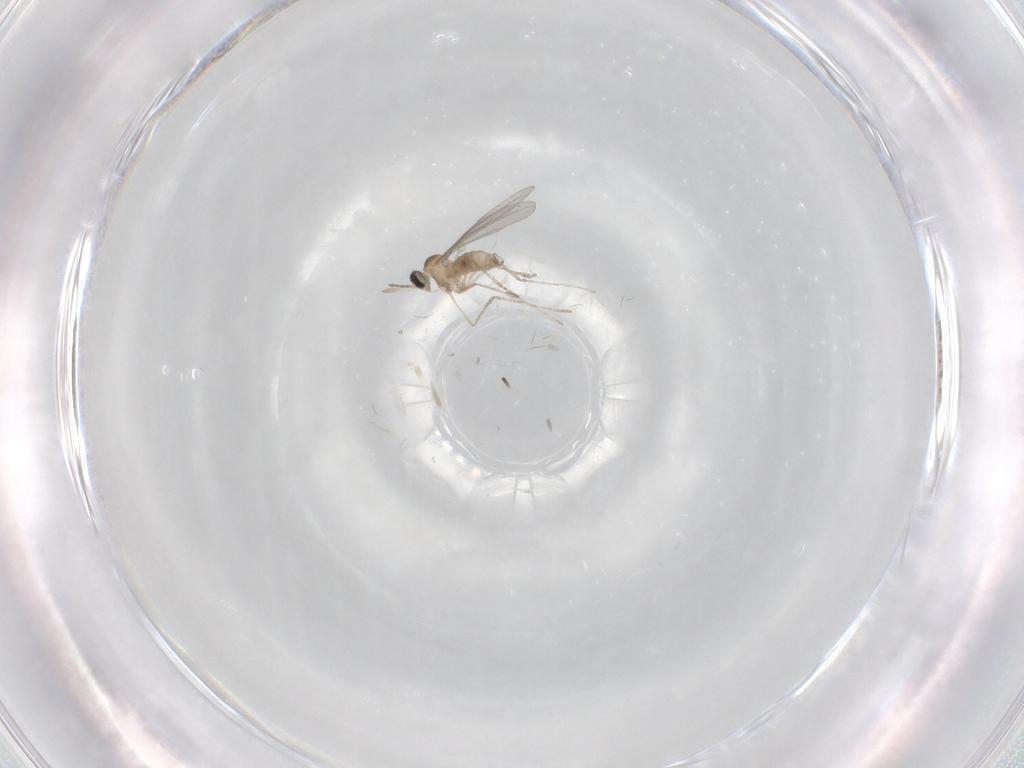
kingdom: Animalia
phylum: Arthropoda
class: Insecta
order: Diptera
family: Cecidomyiidae
